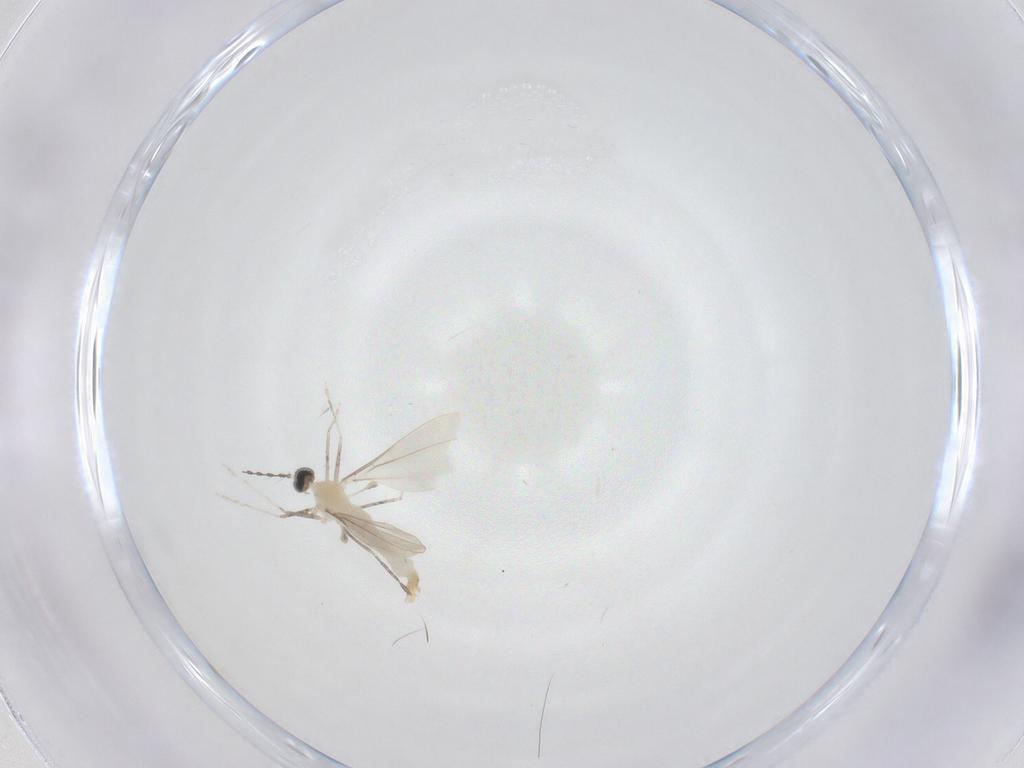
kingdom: Animalia
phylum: Arthropoda
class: Insecta
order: Diptera
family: Cecidomyiidae
